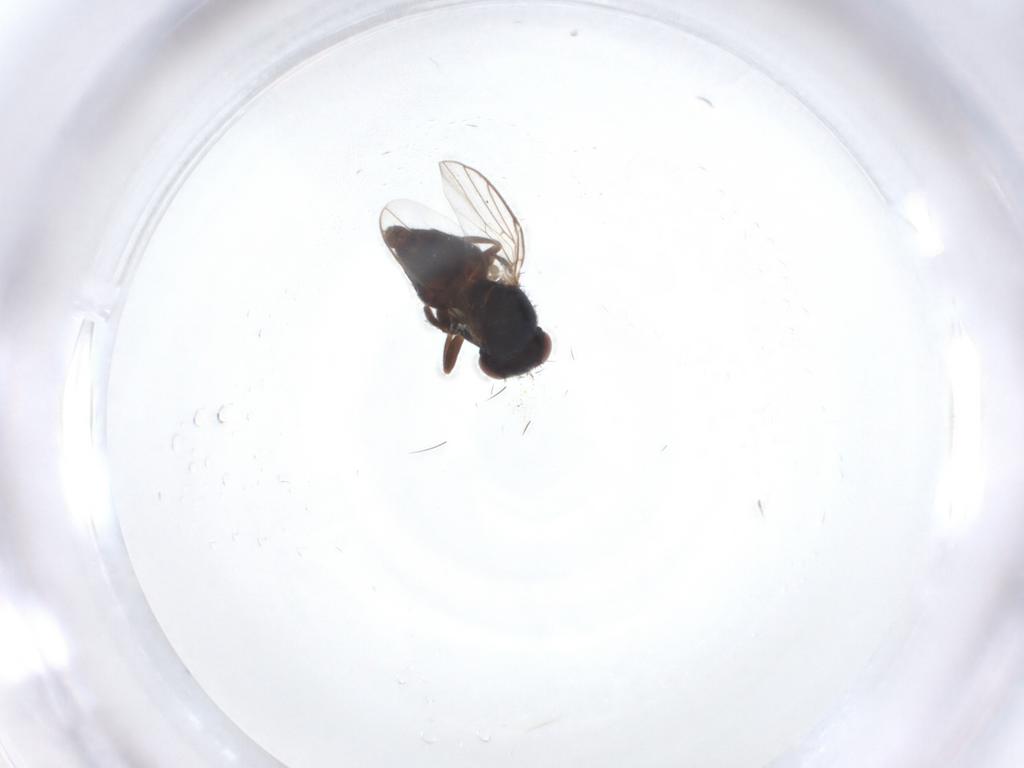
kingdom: Animalia
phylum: Arthropoda
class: Insecta
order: Diptera
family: Chloropidae
